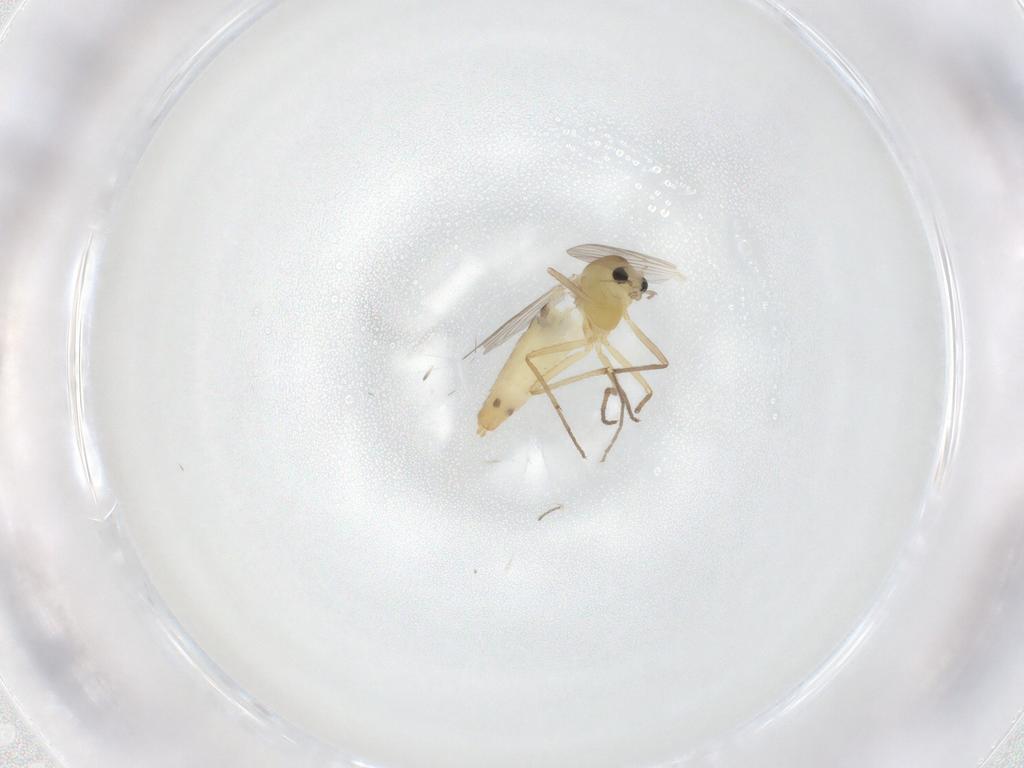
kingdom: Animalia
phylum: Arthropoda
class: Insecta
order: Diptera
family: Chironomidae
